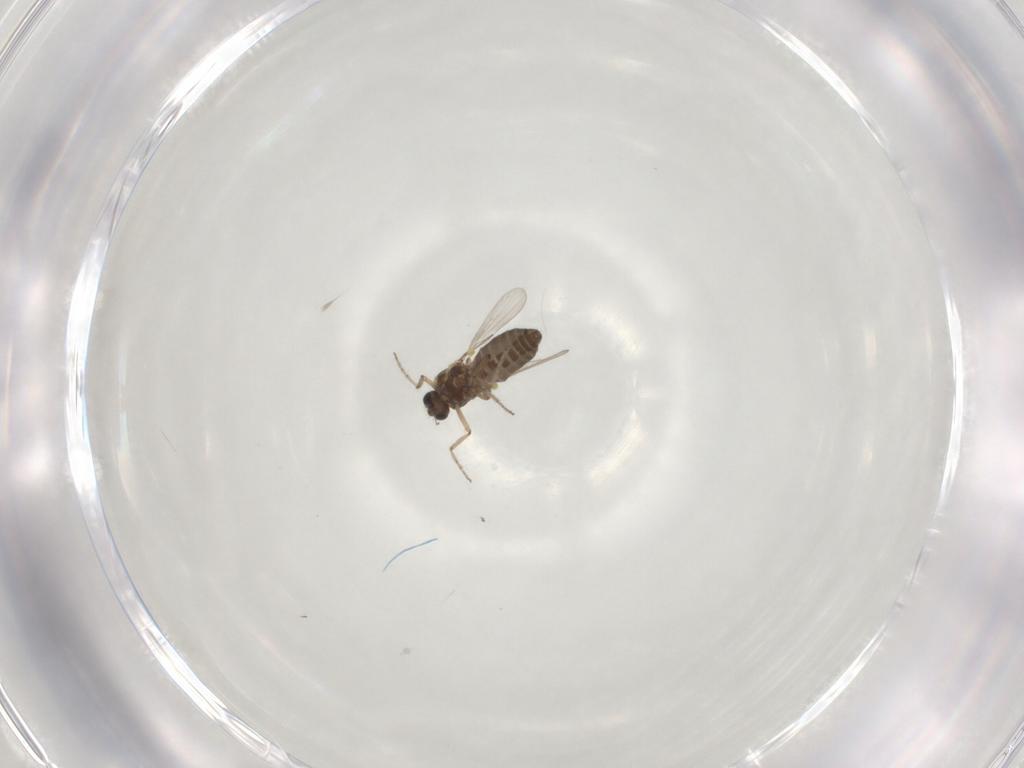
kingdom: Animalia
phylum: Arthropoda
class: Insecta
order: Diptera
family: Ceratopogonidae
